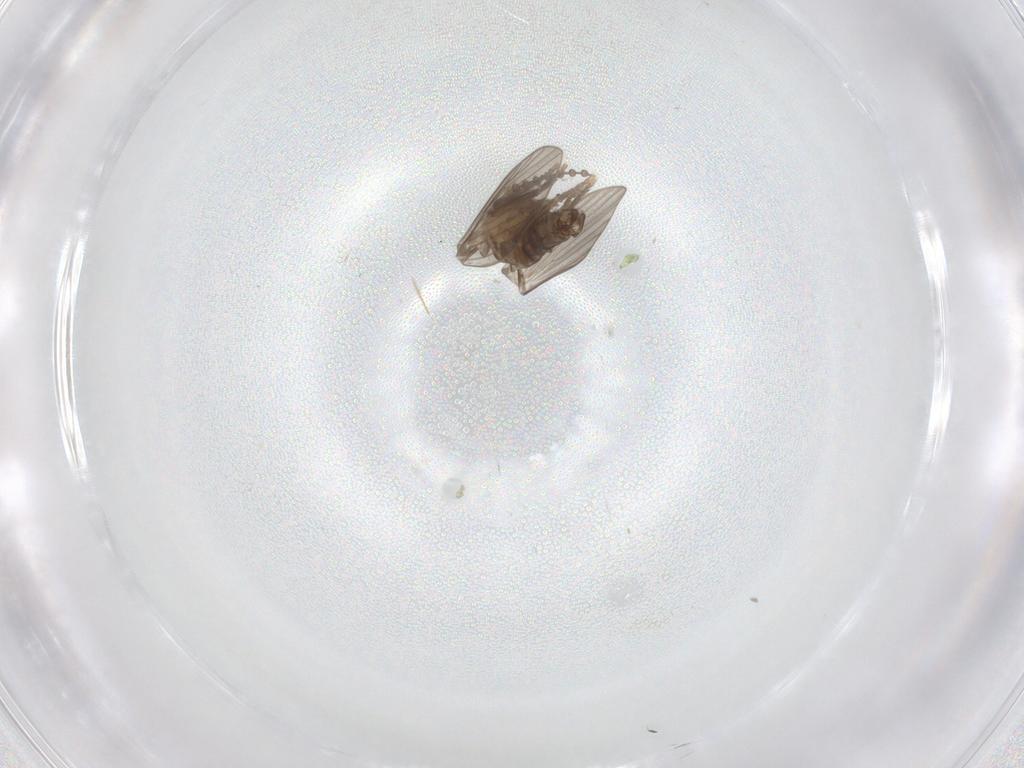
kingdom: Animalia
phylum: Arthropoda
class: Insecta
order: Diptera
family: Psychodidae
